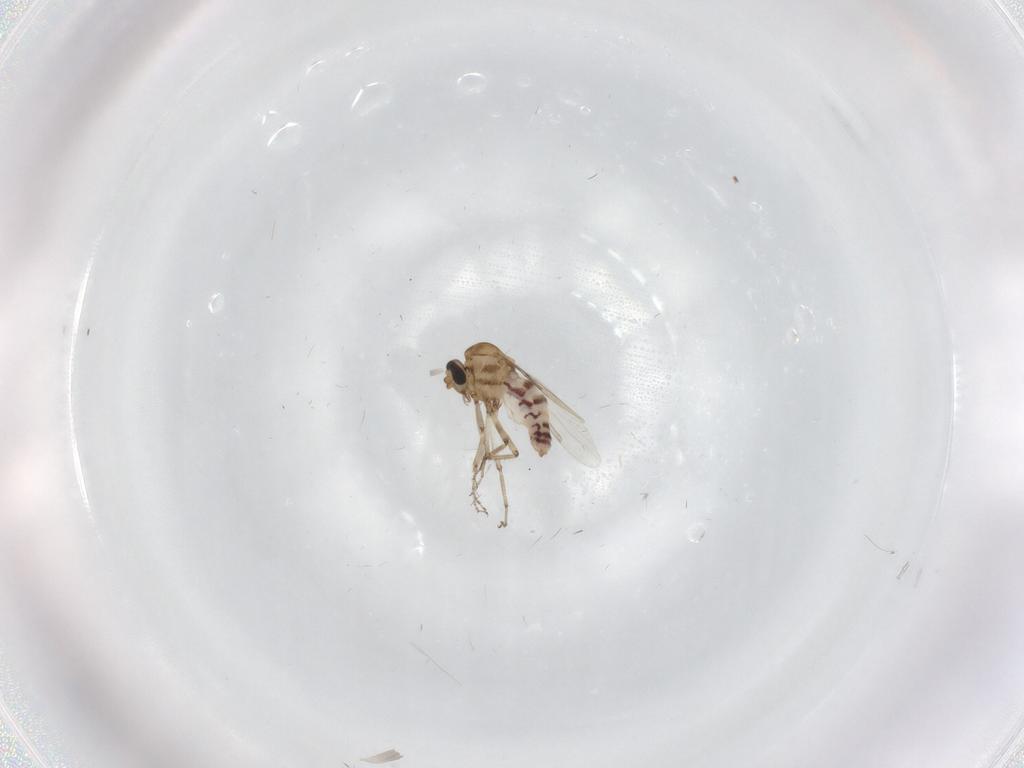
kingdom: Animalia
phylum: Arthropoda
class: Insecta
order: Diptera
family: Ceratopogonidae
